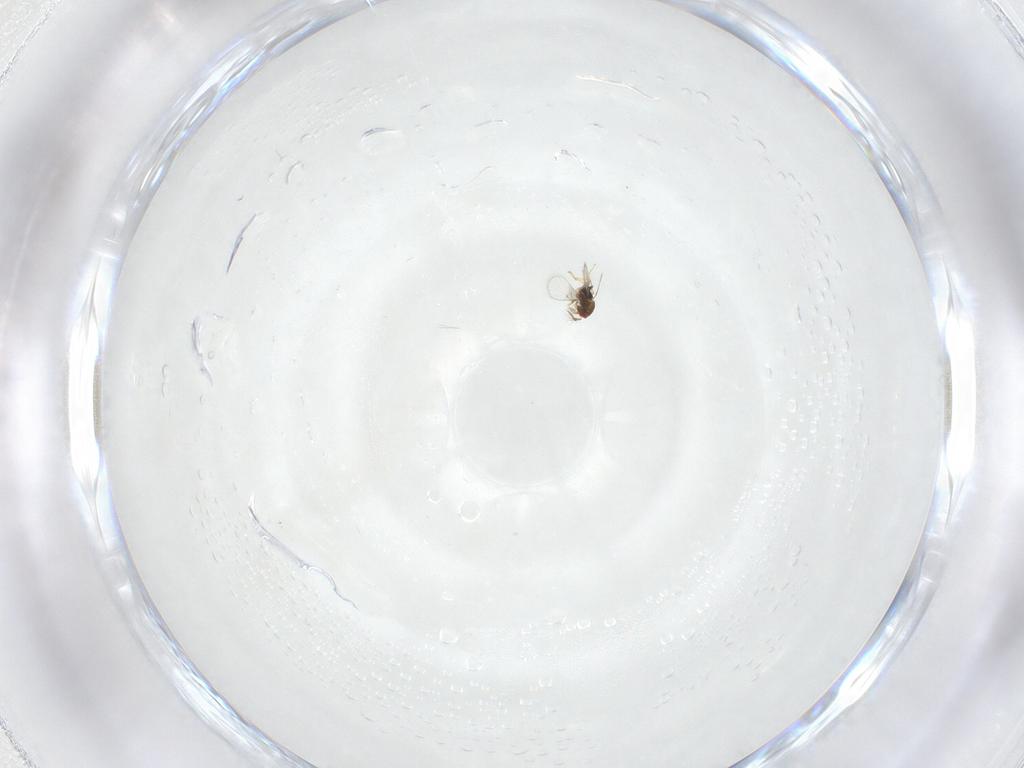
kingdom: Animalia
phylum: Arthropoda
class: Insecta
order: Hymenoptera
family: Trichogrammatidae
